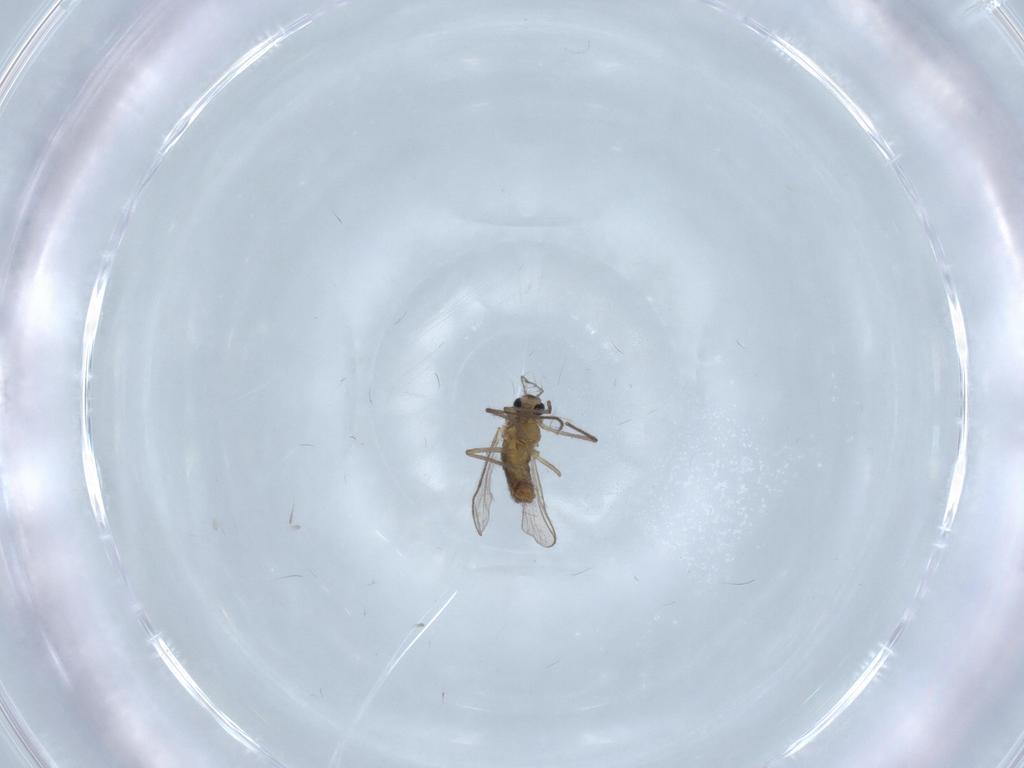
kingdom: Animalia
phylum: Arthropoda
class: Insecta
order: Diptera
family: Chironomidae
